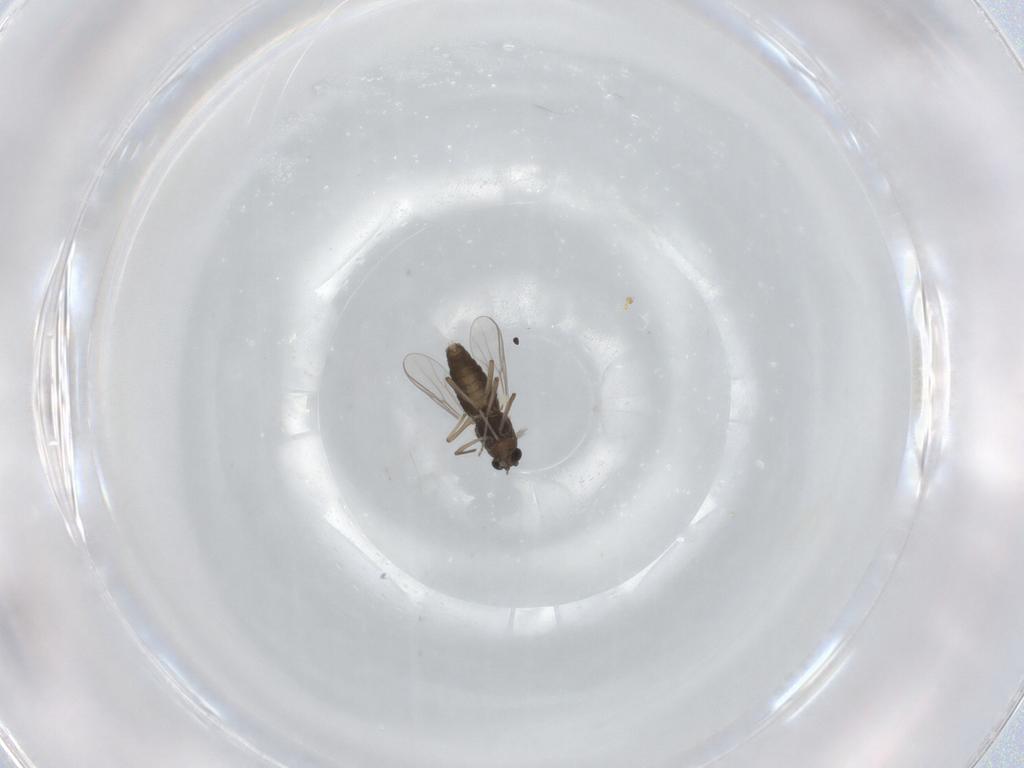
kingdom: Animalia
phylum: Arthropoda
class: Insecta
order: Diptera
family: Chironomidae
